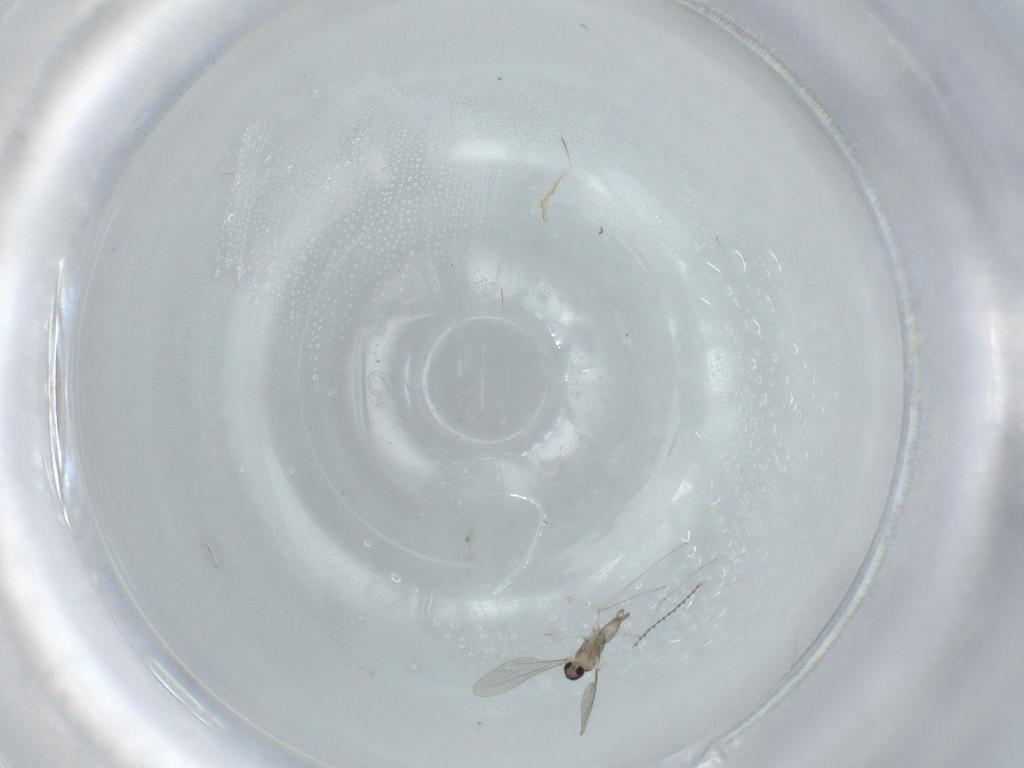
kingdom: Animalia
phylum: Arthropoda
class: Insecta
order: Diptera
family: Cecidomyiidae
